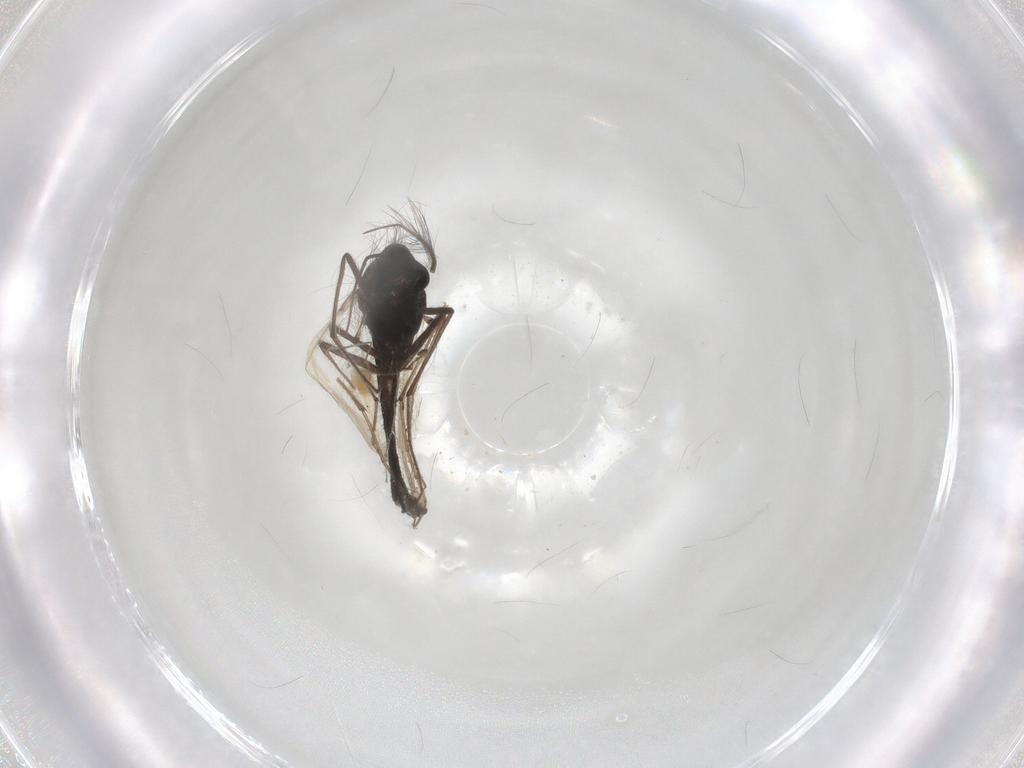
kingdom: Animalia
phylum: Arthropoda
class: Insecta
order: Diptera
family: Chironomidae
